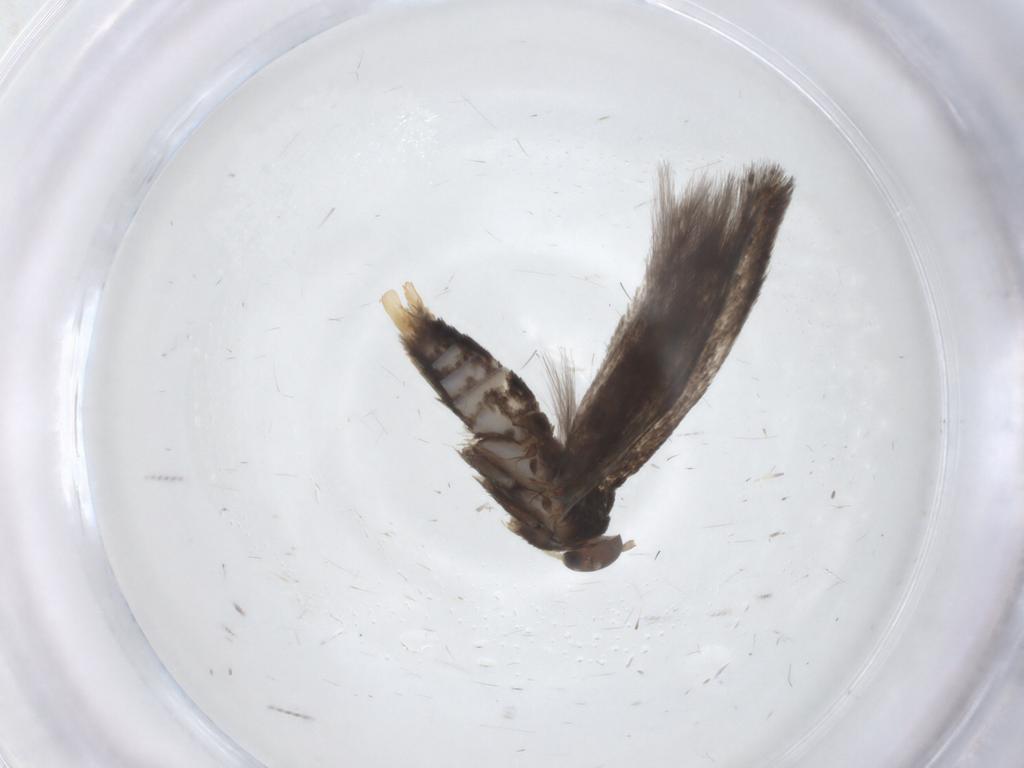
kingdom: Animalia
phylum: Arthropoda
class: Insecta
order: Lepidoptera
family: Elachistidae
